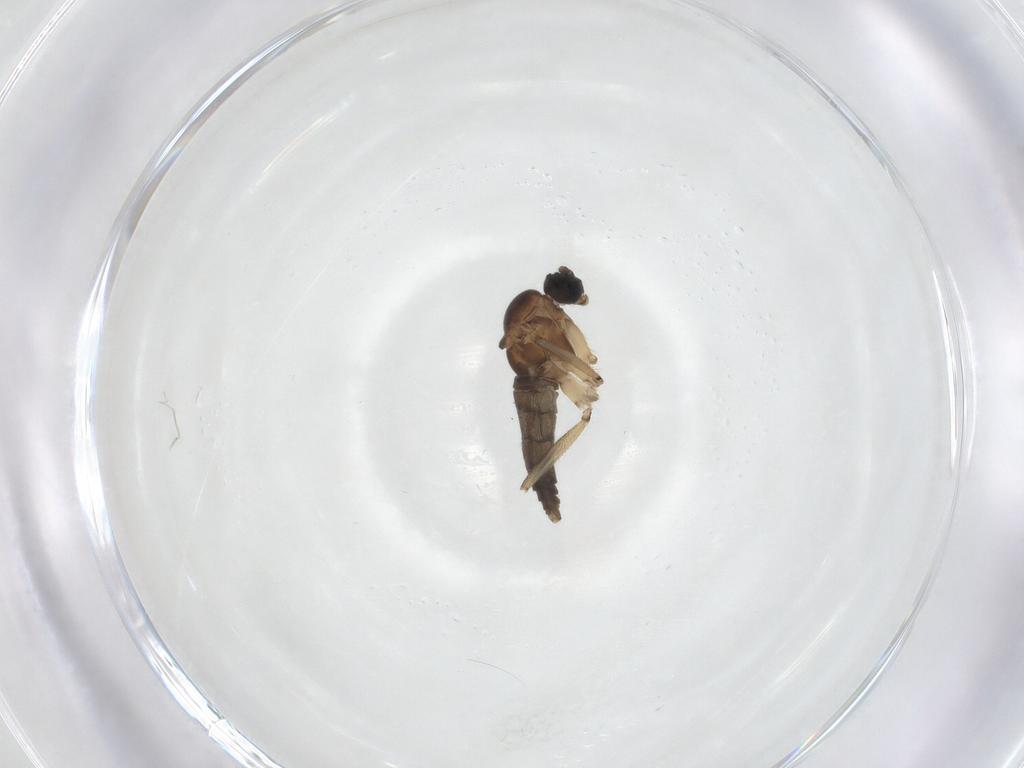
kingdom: Animalia
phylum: Arthropoda
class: Insecta
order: Diptera
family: Sciaridae
